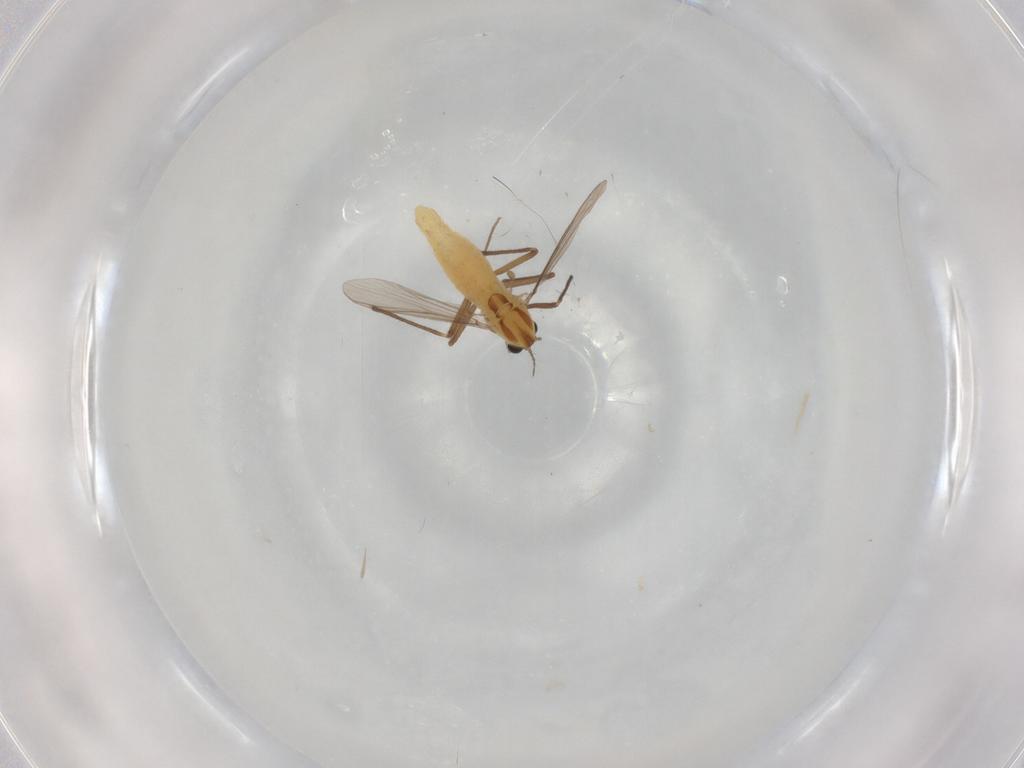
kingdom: Animalia
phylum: Arthropoda
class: Insecta
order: Diptera
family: Chironomidae
